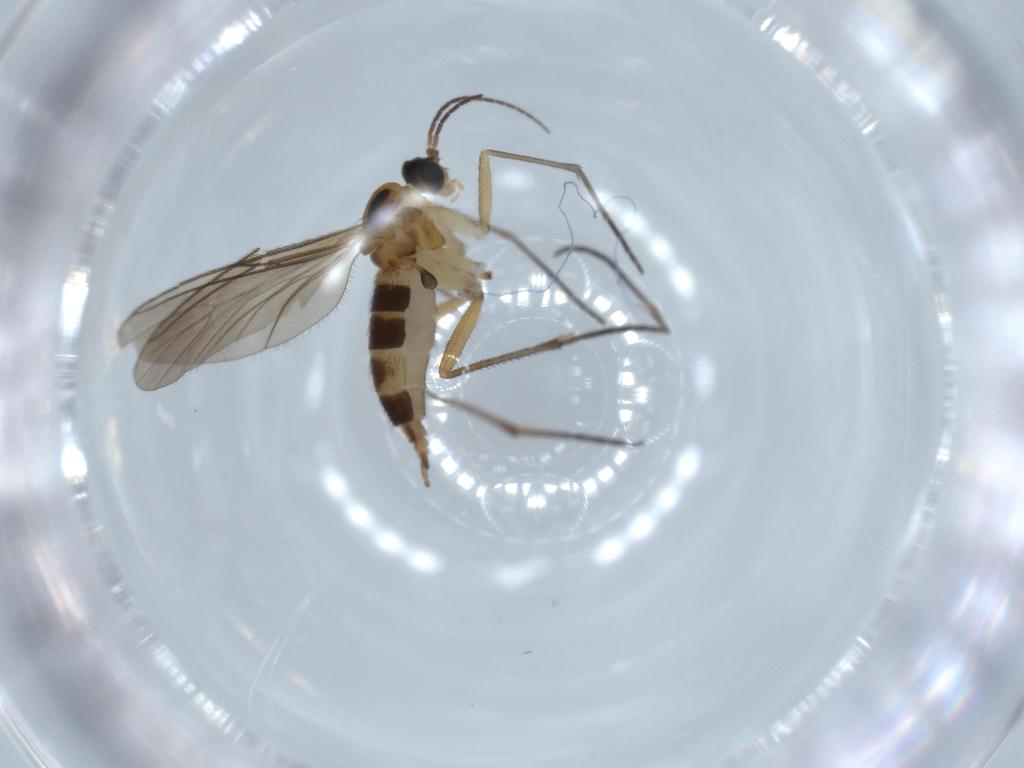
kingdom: Animalia
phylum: Arthropoda
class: Insecta
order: Diptera
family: Sciaridae
